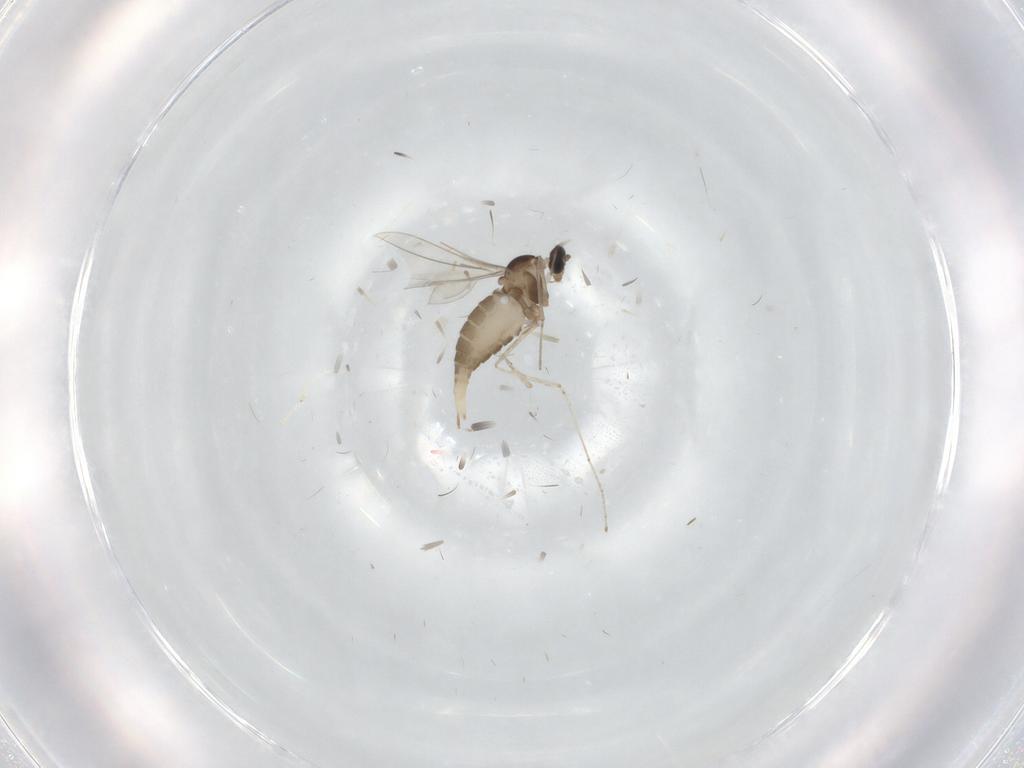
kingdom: Animalia
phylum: Arthropoda
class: Insecta
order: Diptera
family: Cecidomyiidae
